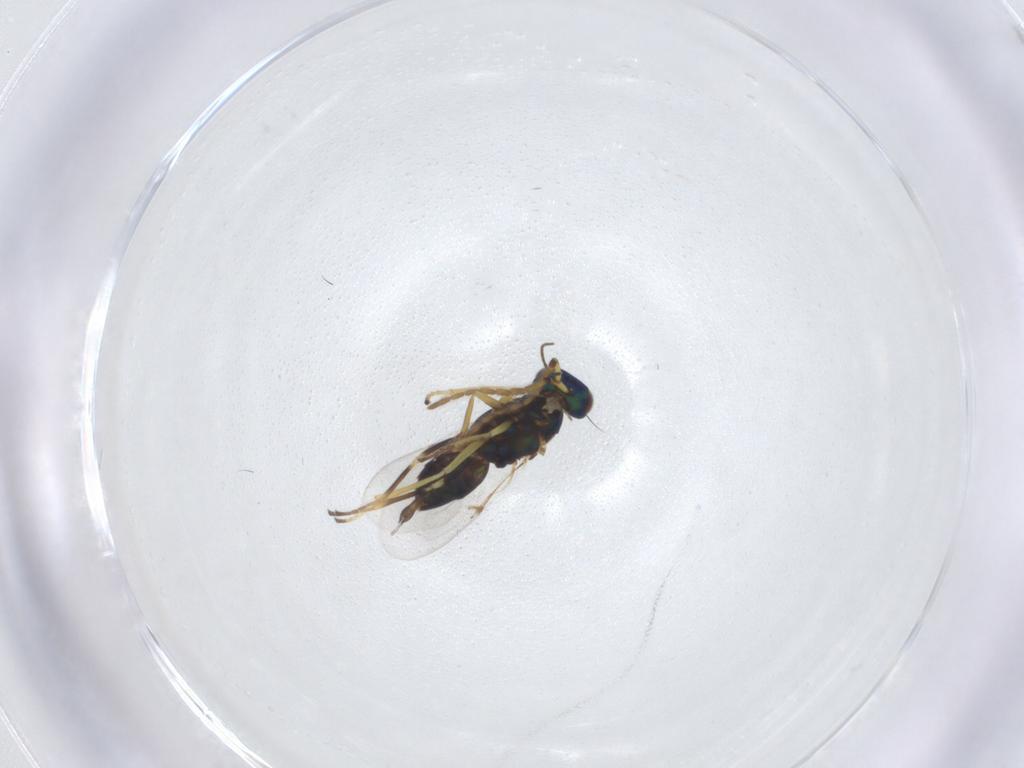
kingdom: Animalia
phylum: Arthropoda
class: Insecta
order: Hymenoptera
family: Encyrtidae
